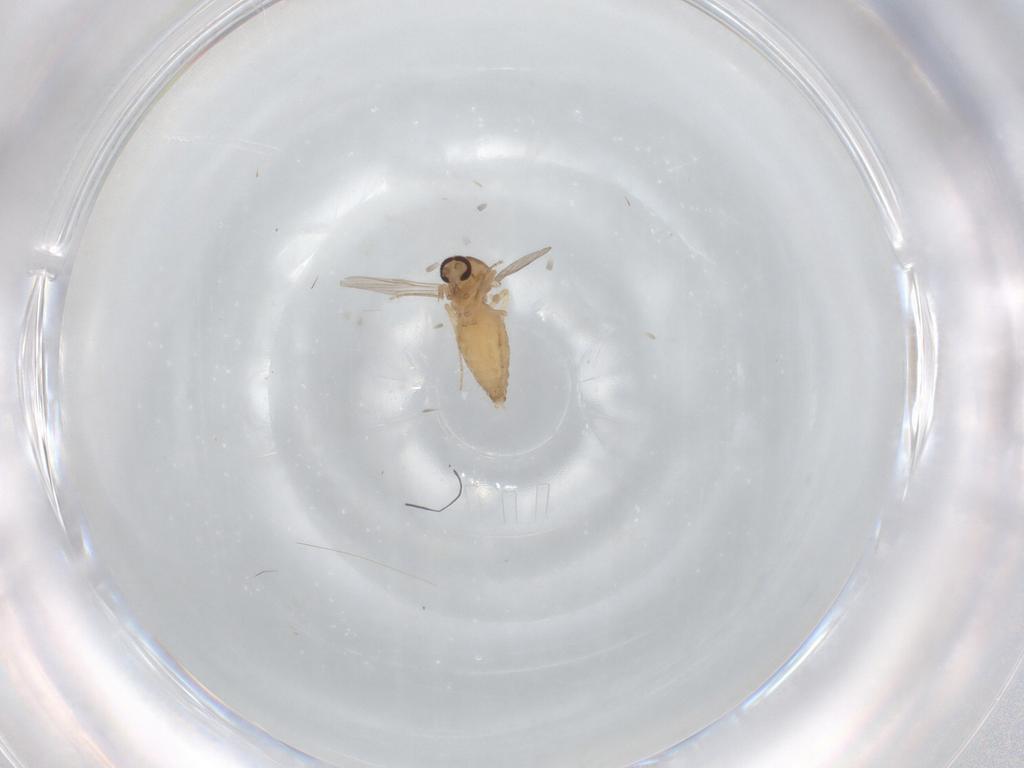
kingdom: Animalia
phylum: Arthropoda
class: Insecta
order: Diptera
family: Ceratopogonidae
